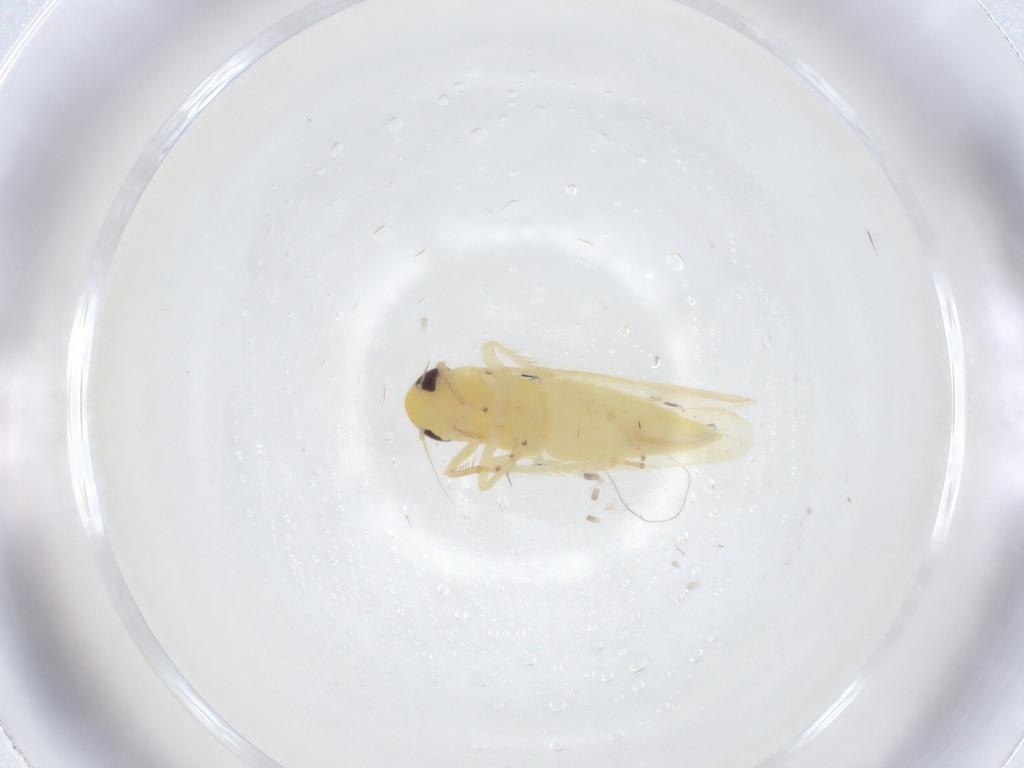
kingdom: Animalia
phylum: Arthropoda
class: Insecta
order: Hemiptera
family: Cicadellidae
